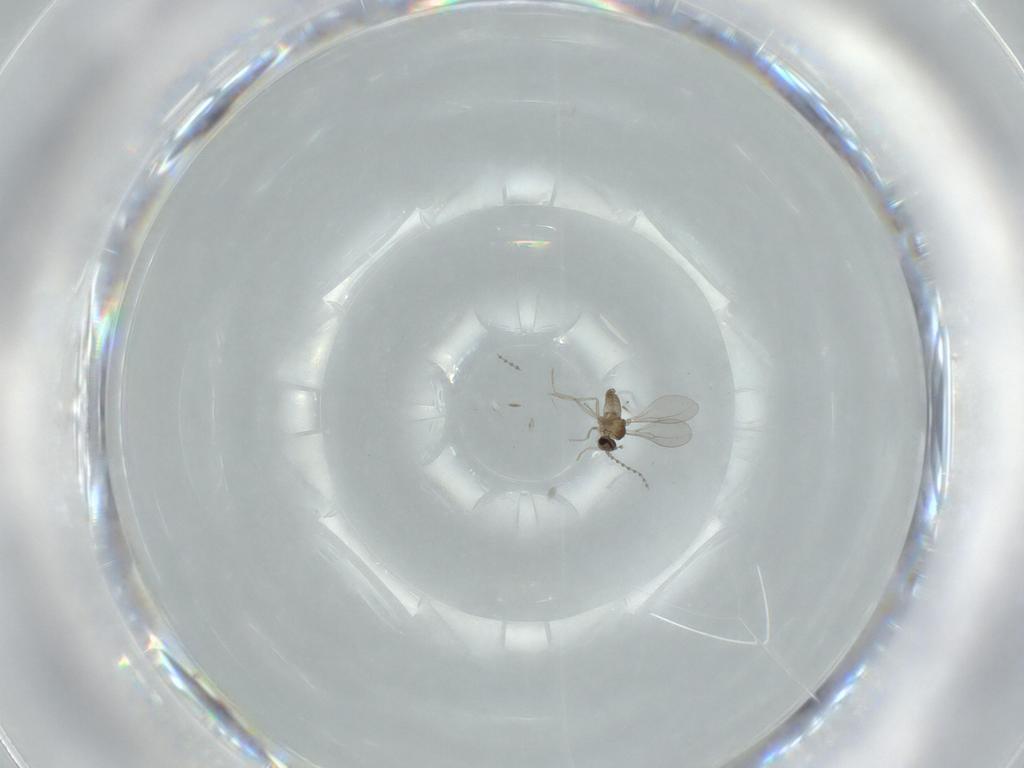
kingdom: Animalia
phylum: Arthropoda
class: Insecta
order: Diptera
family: Cecidomyiidae
